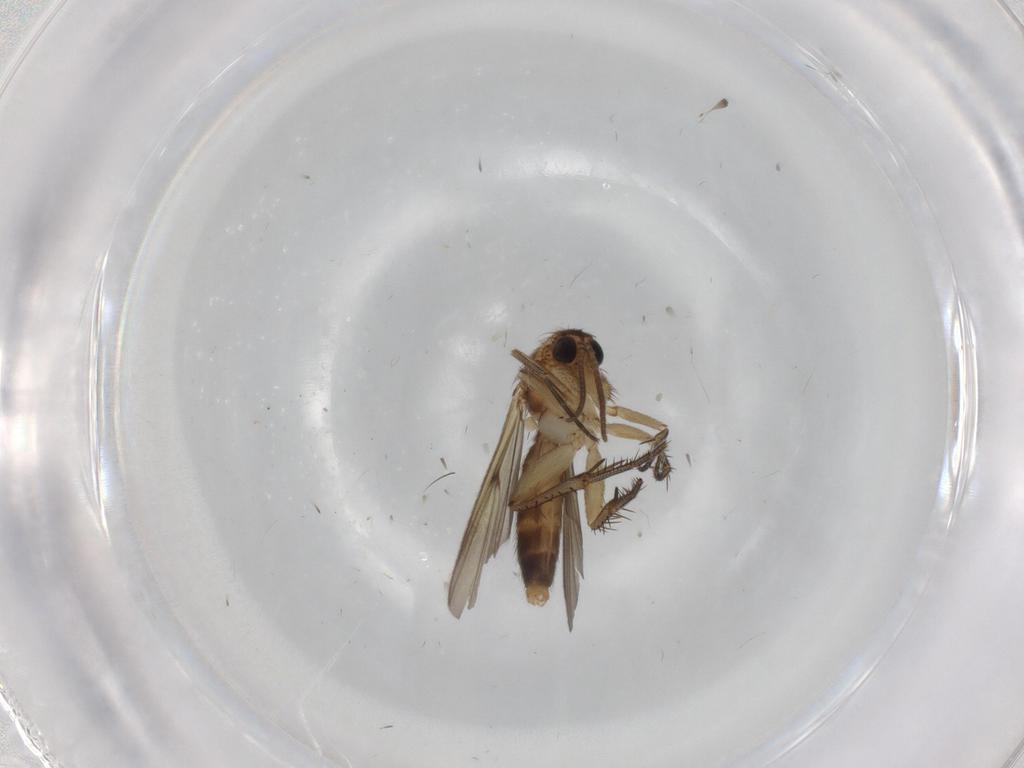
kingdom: Animalia
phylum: Arthropoda
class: Insecta
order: Diptera
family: Mycetophilidae
